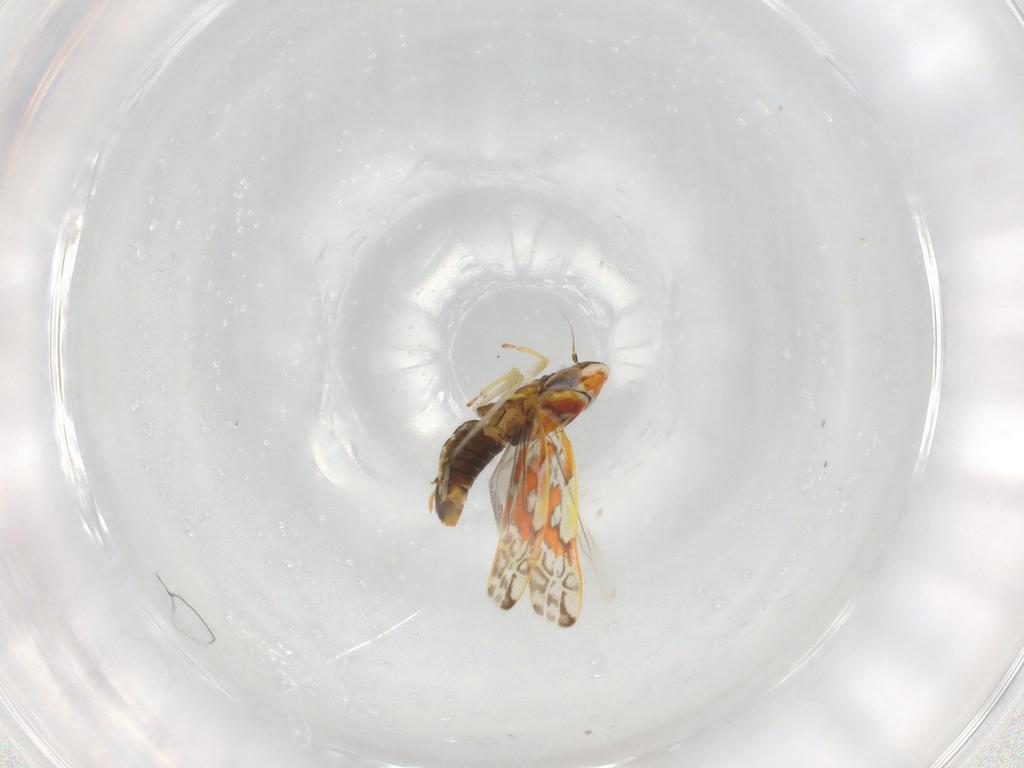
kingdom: Animalia
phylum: Arthropoda
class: Insecta
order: Hemiptera
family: Cicadellidae
